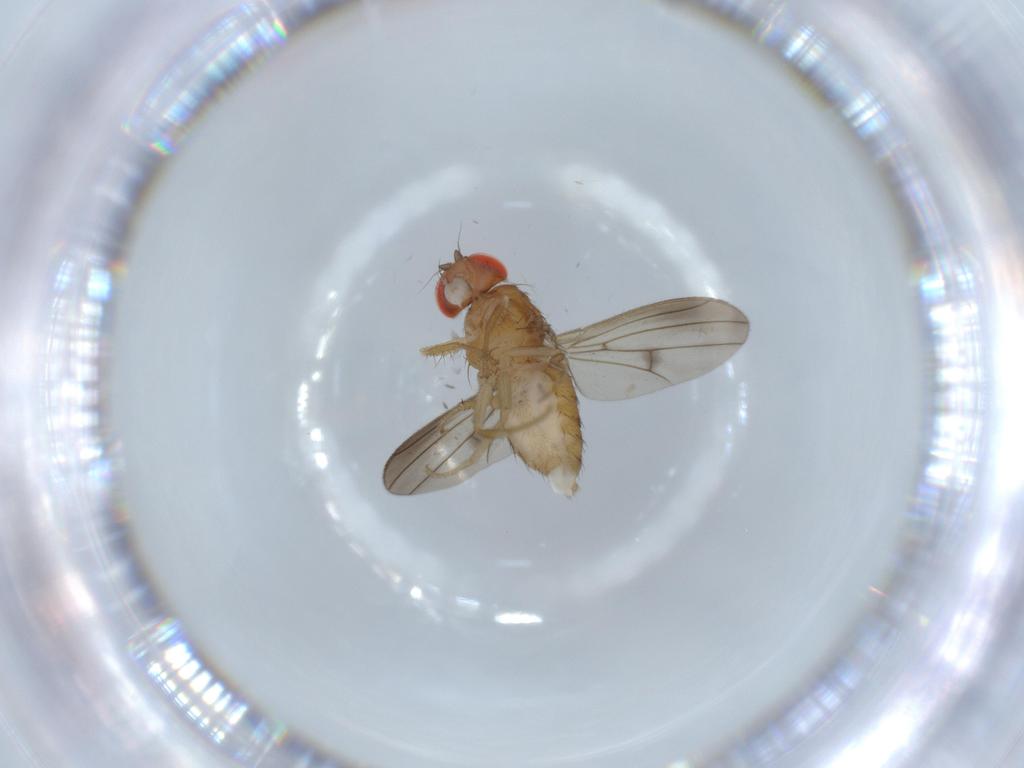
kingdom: Animalia
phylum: Arthropoda
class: Insecta
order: Diptera
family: Drosophilidae
